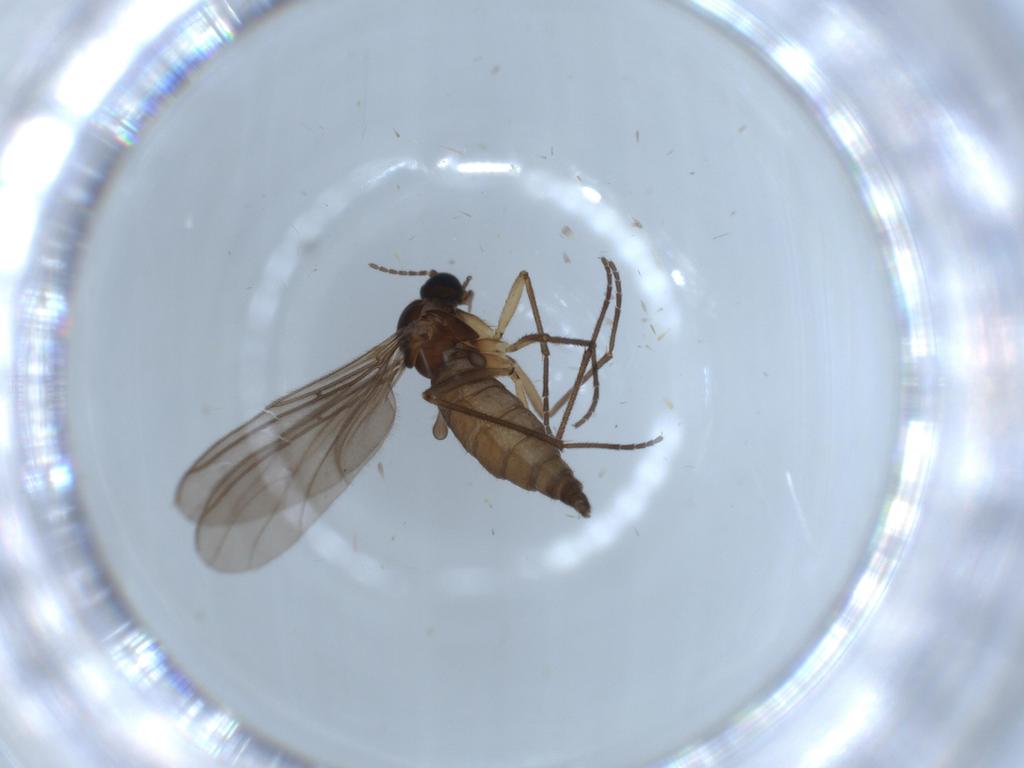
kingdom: Animalia
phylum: Arthropoda
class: Insecta
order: Diptera
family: Sciaridae
